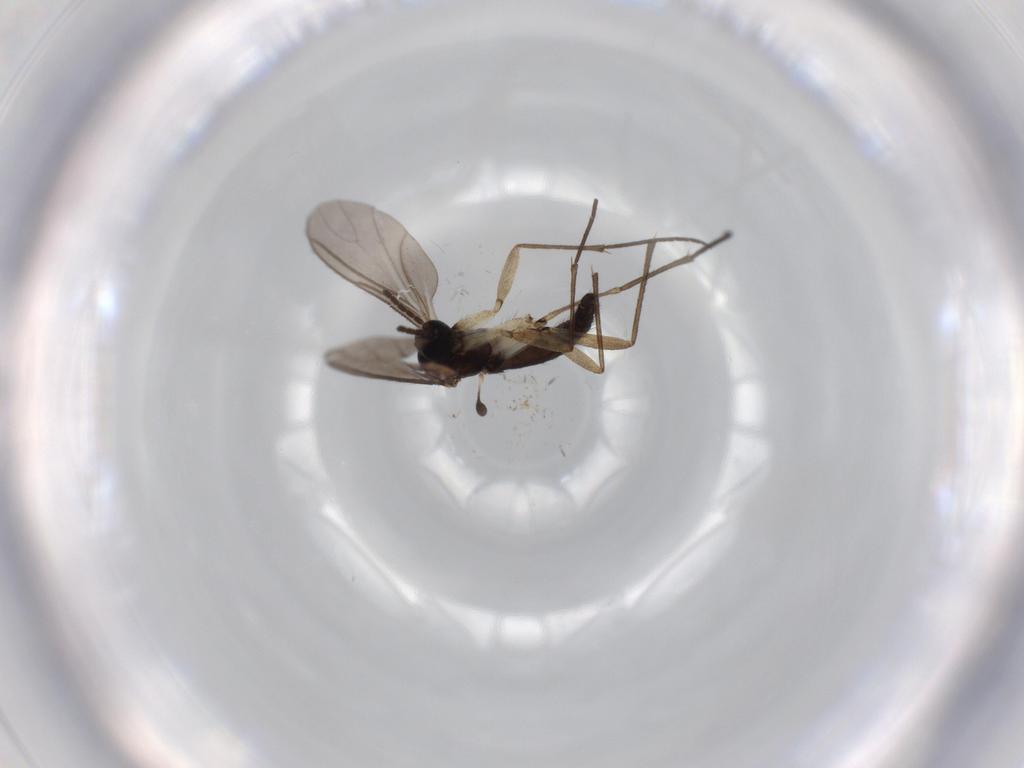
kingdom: Animalia
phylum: Arthropoda
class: Insecta
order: Diptera
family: Sciaridae
